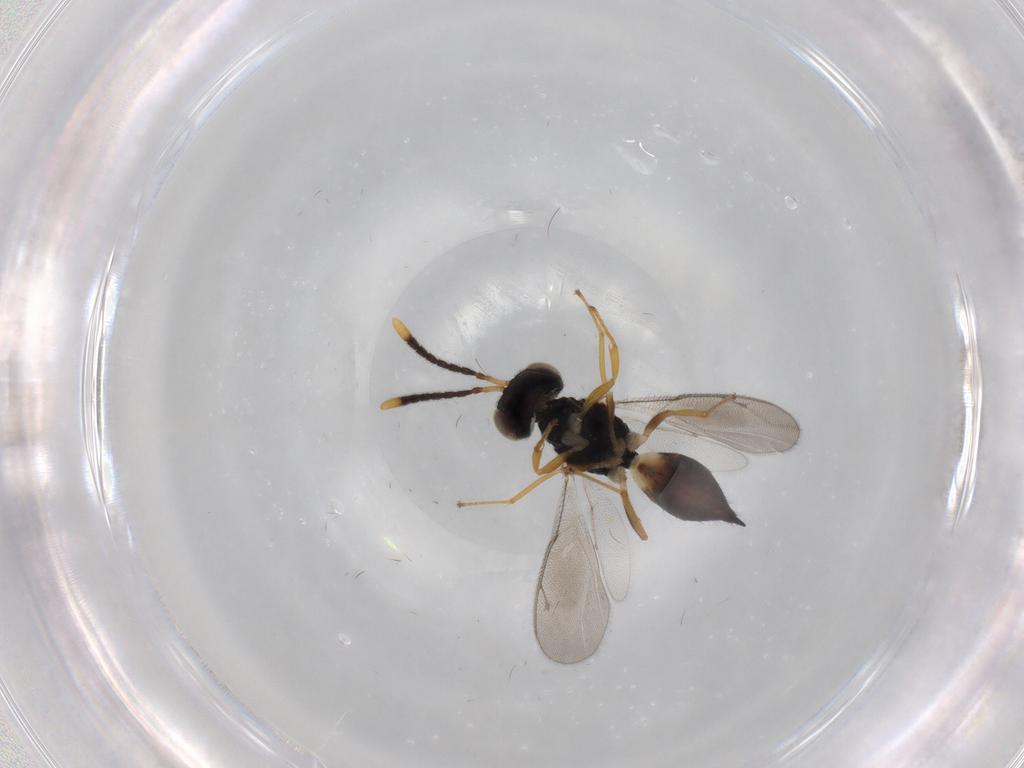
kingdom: Animalia
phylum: Arthropoda
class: Insecta
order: Hymenoptera
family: Pteromalidae
